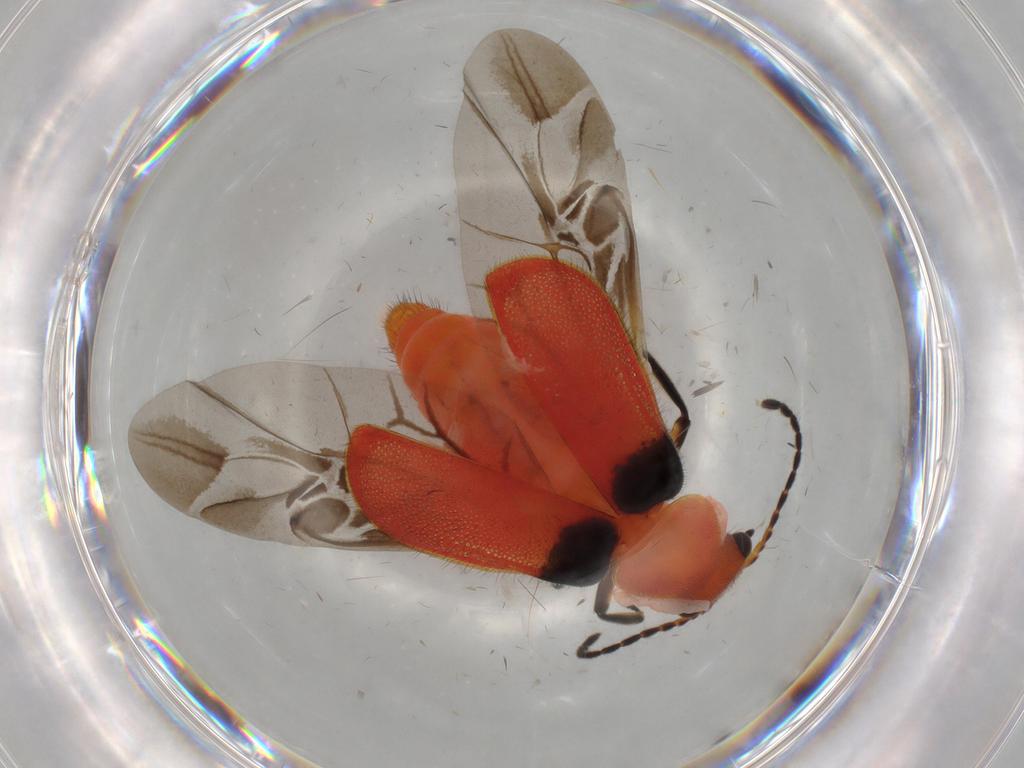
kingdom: Animalia
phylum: Arthropoda
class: Insecta
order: Coleoptera
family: Melyridae
